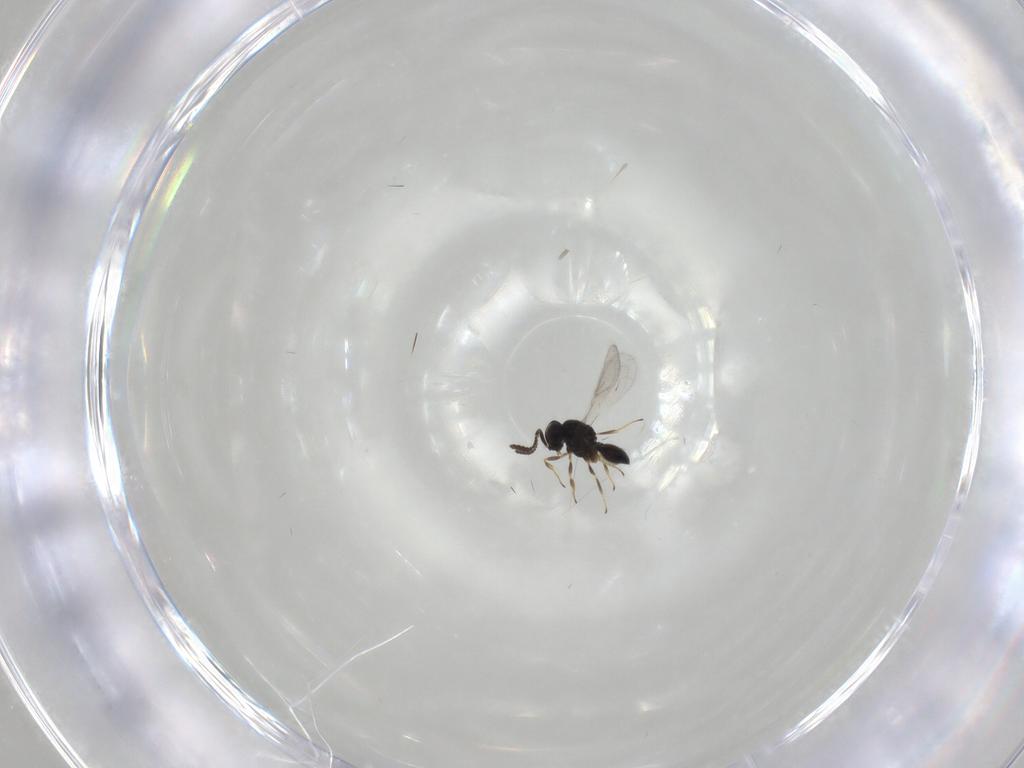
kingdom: Animalia
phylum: Arthropoda
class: Insecta
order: Hymenoptera
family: Scelionidae
